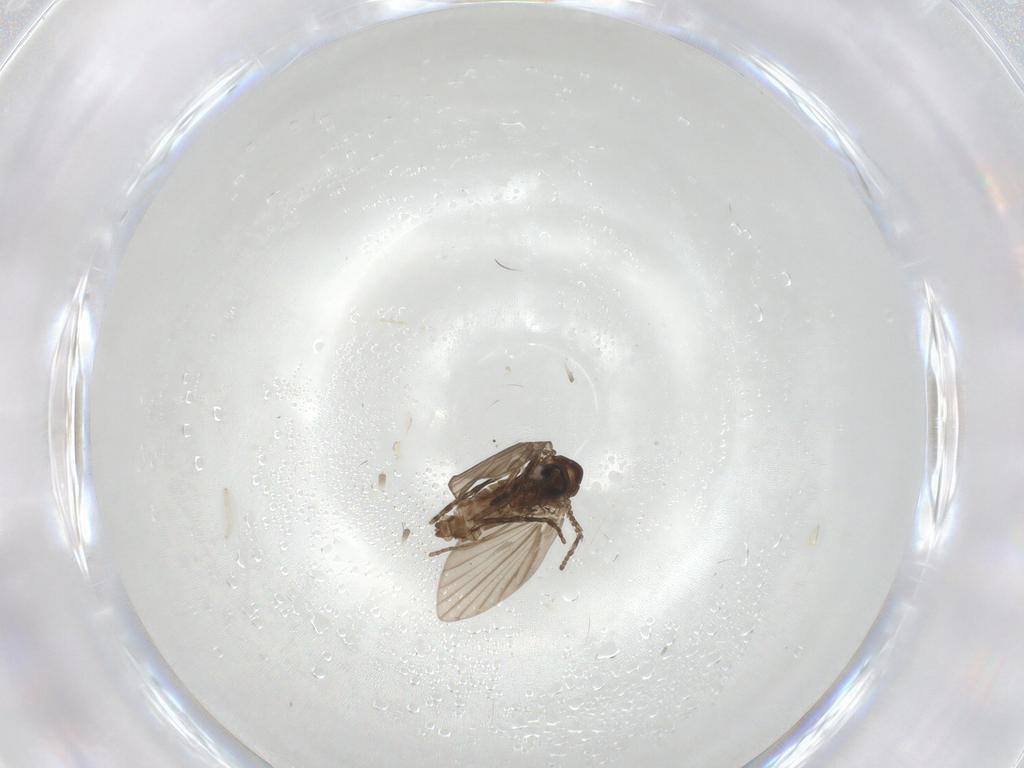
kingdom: Animalia
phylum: Arthropoda
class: Insecta
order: Diptera
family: Psychodidae
